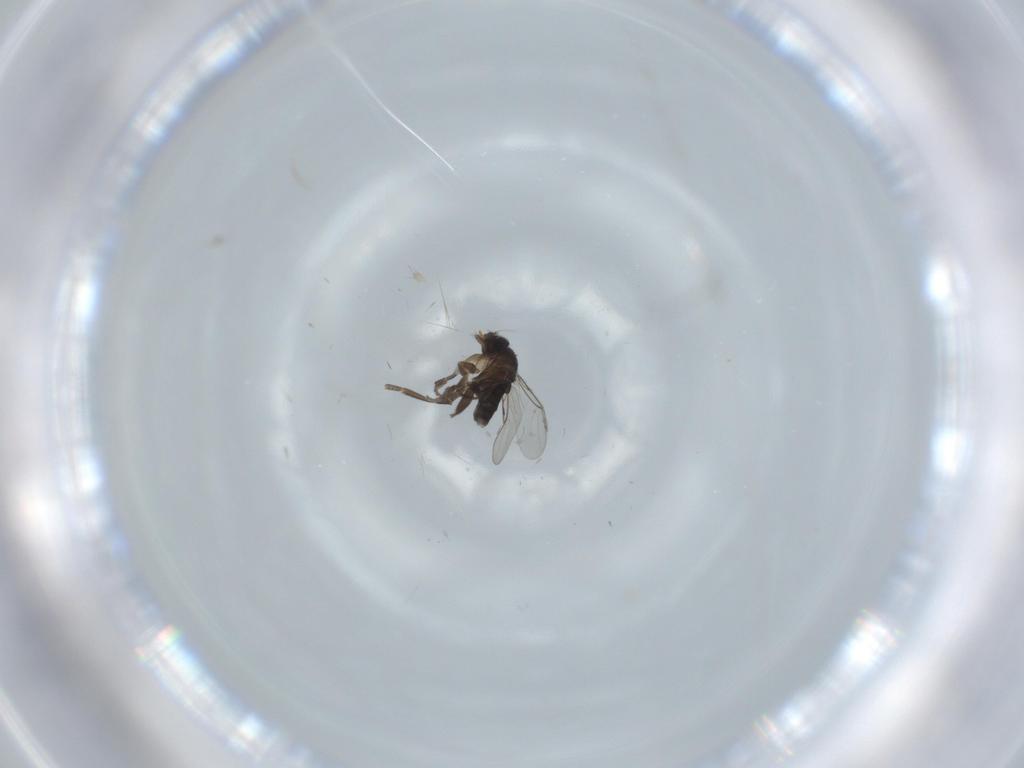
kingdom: Animalia
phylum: Arthropoda
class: Insecta
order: Diptera
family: Phoridae
